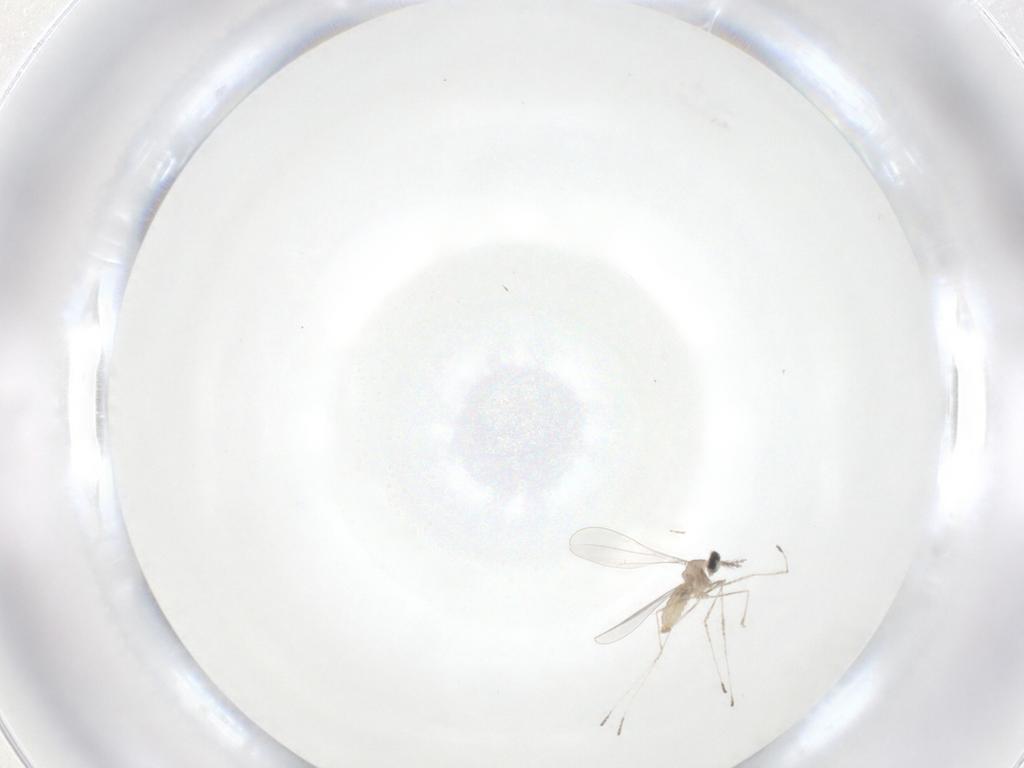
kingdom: Animalia
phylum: Arthropoda
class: Insecta
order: Diptera
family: Cecidomyiidae
